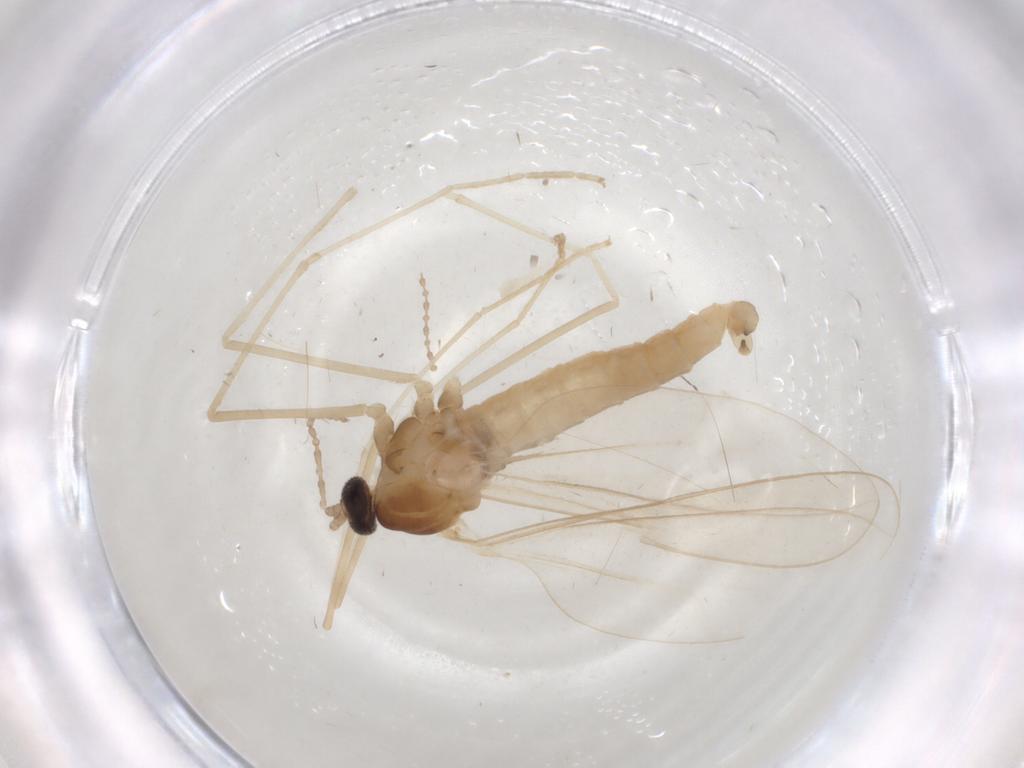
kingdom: Animalia
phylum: Arthropoda
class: Insecta
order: Diptera
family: Cecidomyiidae
